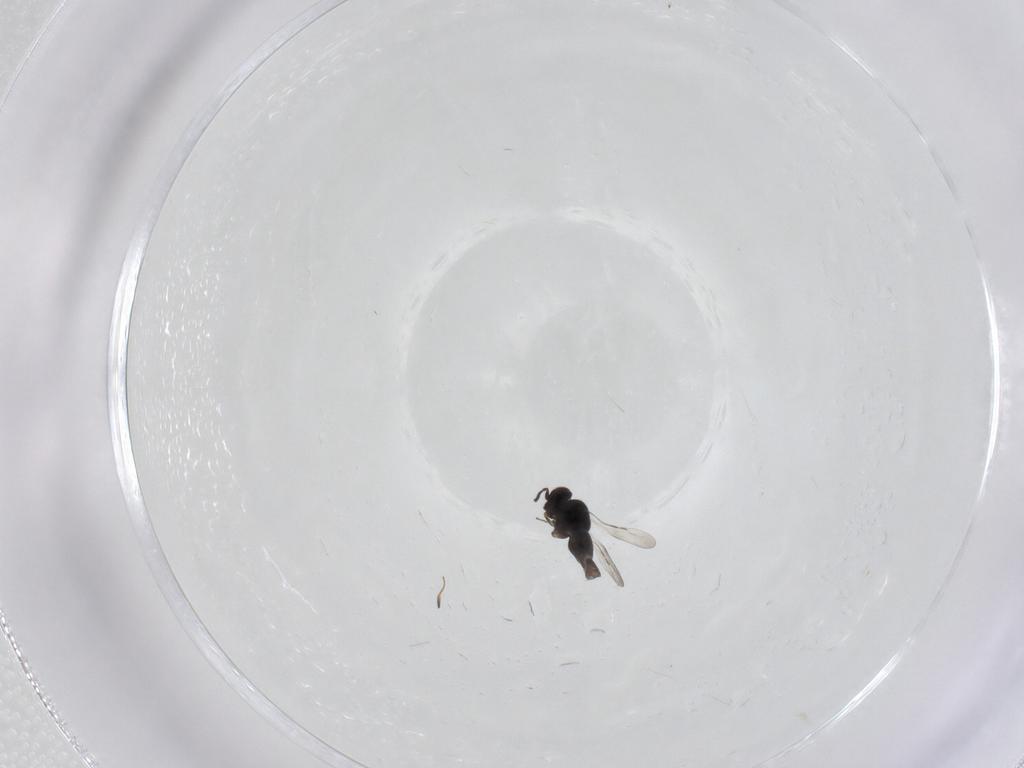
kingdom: Animalia
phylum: Arthropoda
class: Insecta
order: Hymenoptera
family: Ceraphronidae
